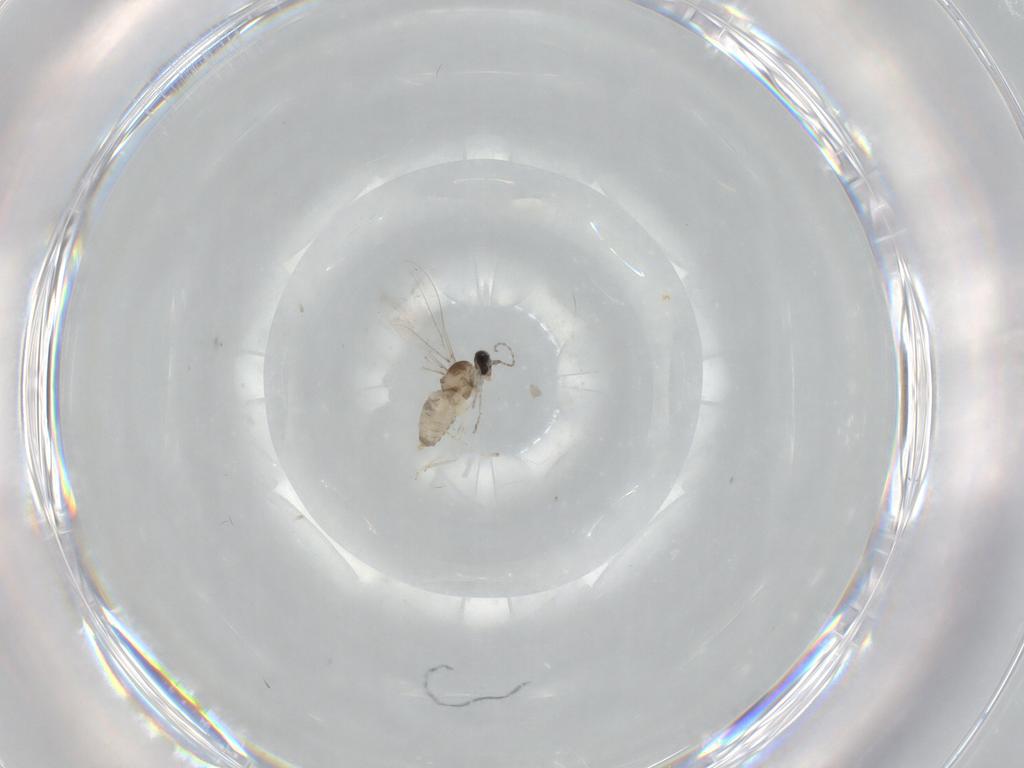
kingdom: Animalia
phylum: Arthropoda
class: Insecta
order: Diptera
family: Cecidomyiidae
